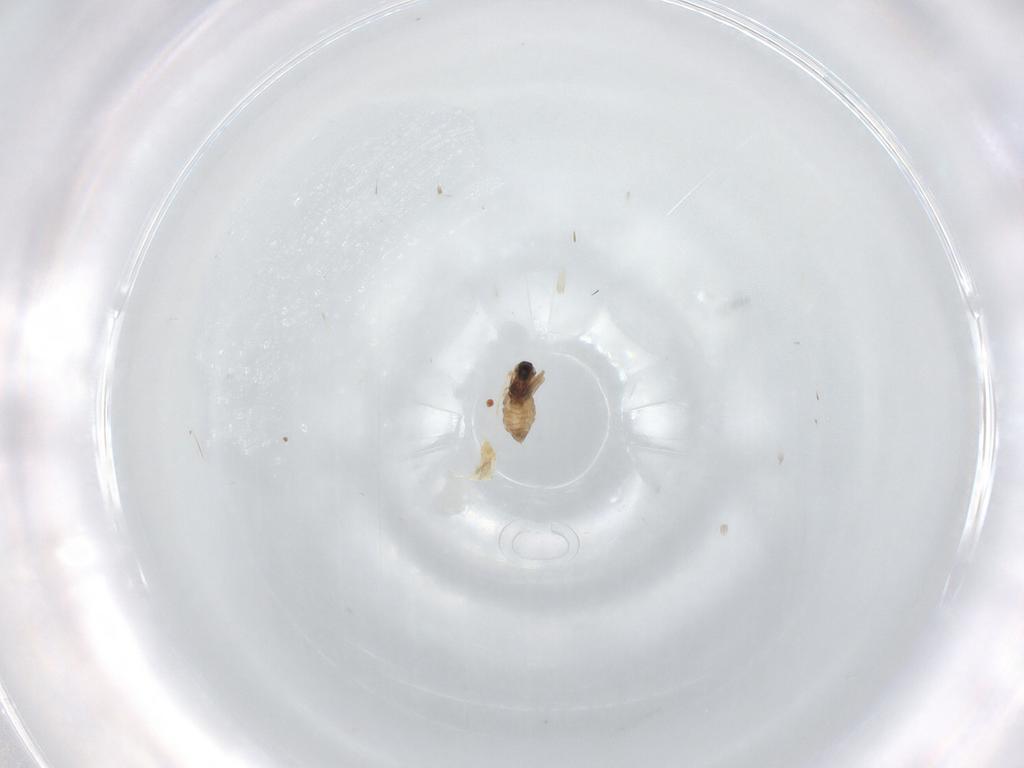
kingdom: Animalia
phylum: Arthropoda
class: Insecta
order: Diptera
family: Cecidomyiidae
